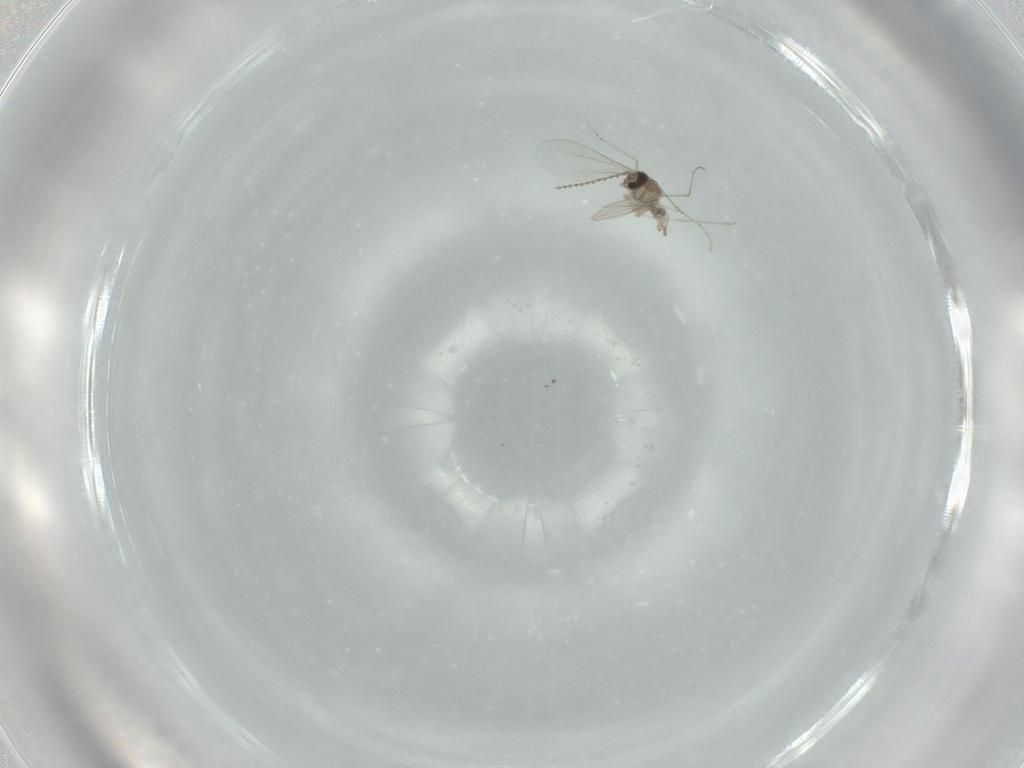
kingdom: Animalia
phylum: Arthropoda
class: Insecta
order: Diptera
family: Cecidomyiidae
